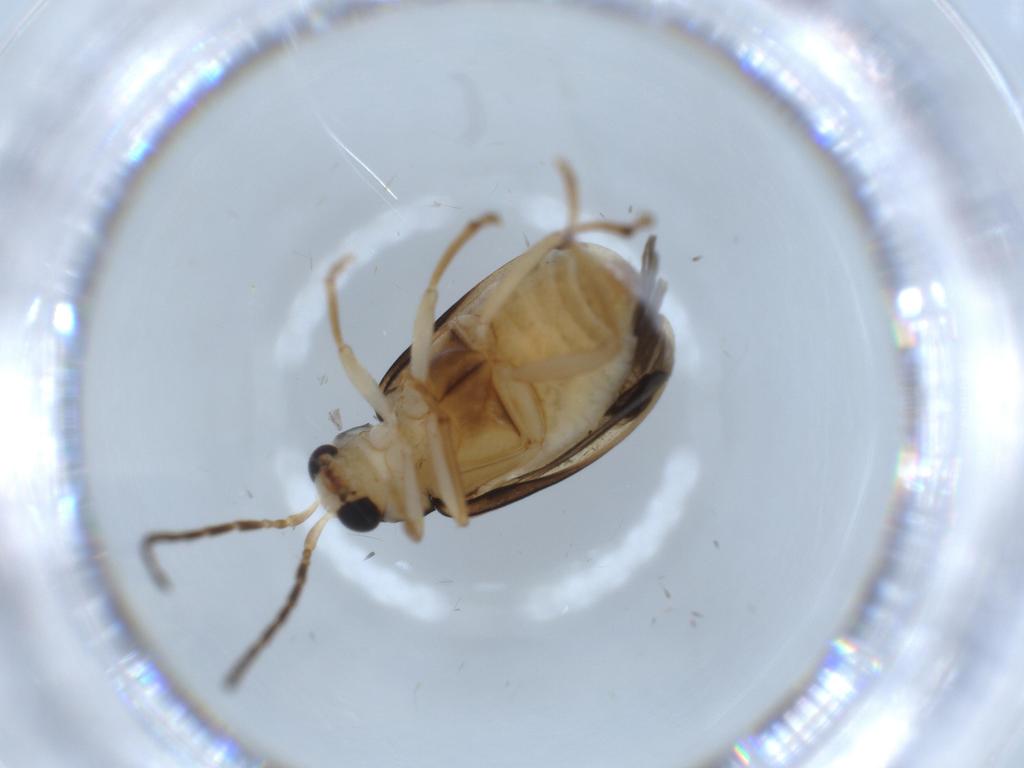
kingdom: Animalia
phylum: Arthropoda
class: Insecta
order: Coleoptera
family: Chrysomelidae
